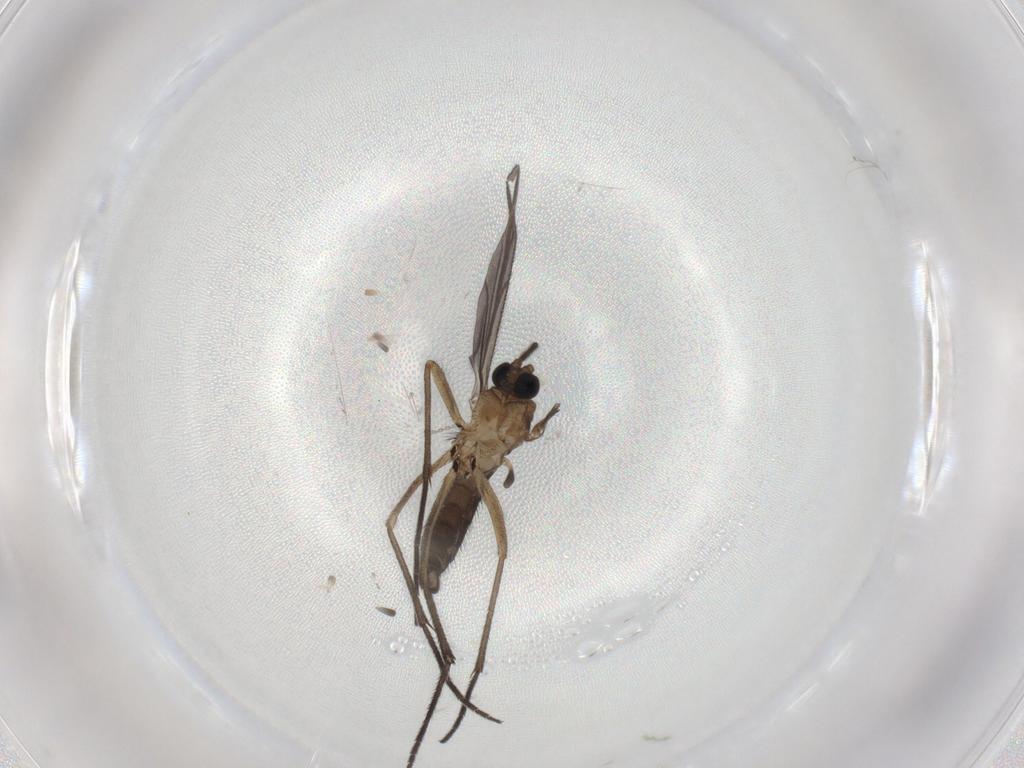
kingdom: Animalia
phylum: Arthropoda
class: Insecta
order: Diptera
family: Sciaridae
